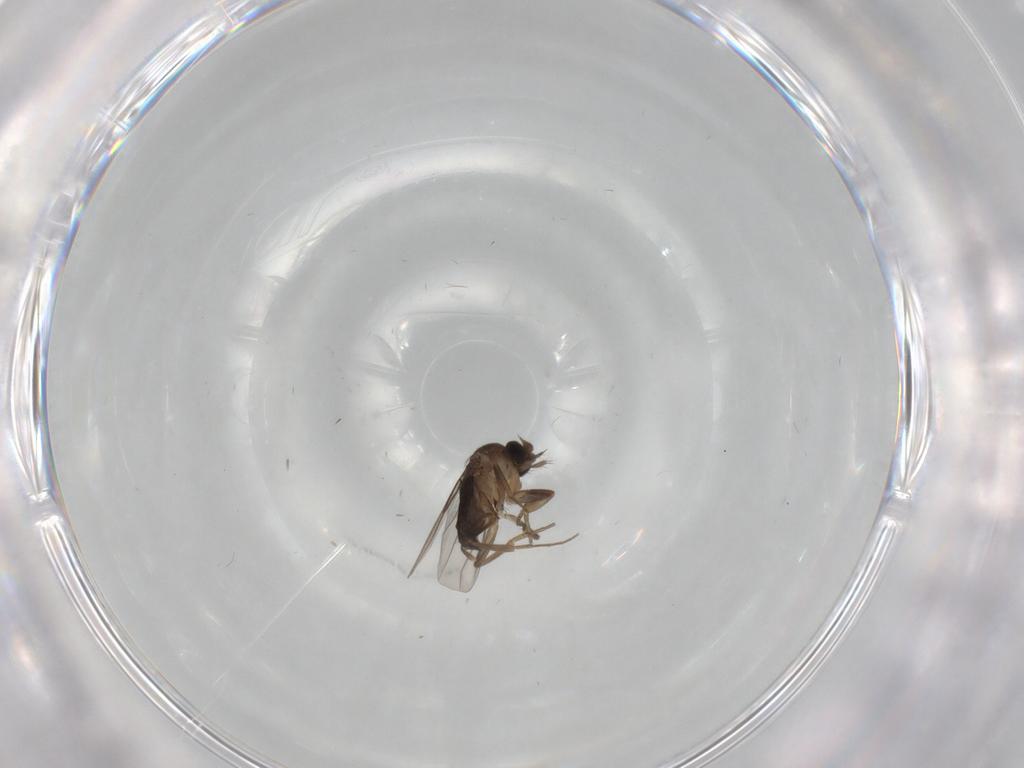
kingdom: Animalia
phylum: Arthropoda
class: Insecta
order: Diptera
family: Phoridae
